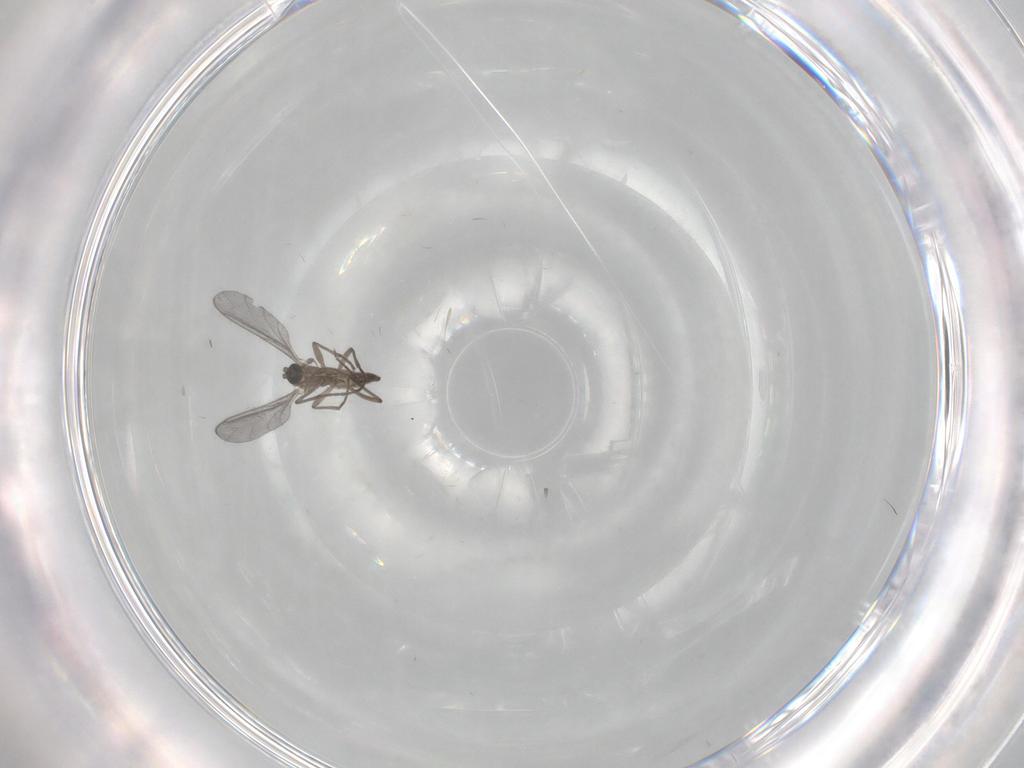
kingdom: Animalia
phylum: Arthropoda
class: Insecta
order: Diptera
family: Sciaridae
